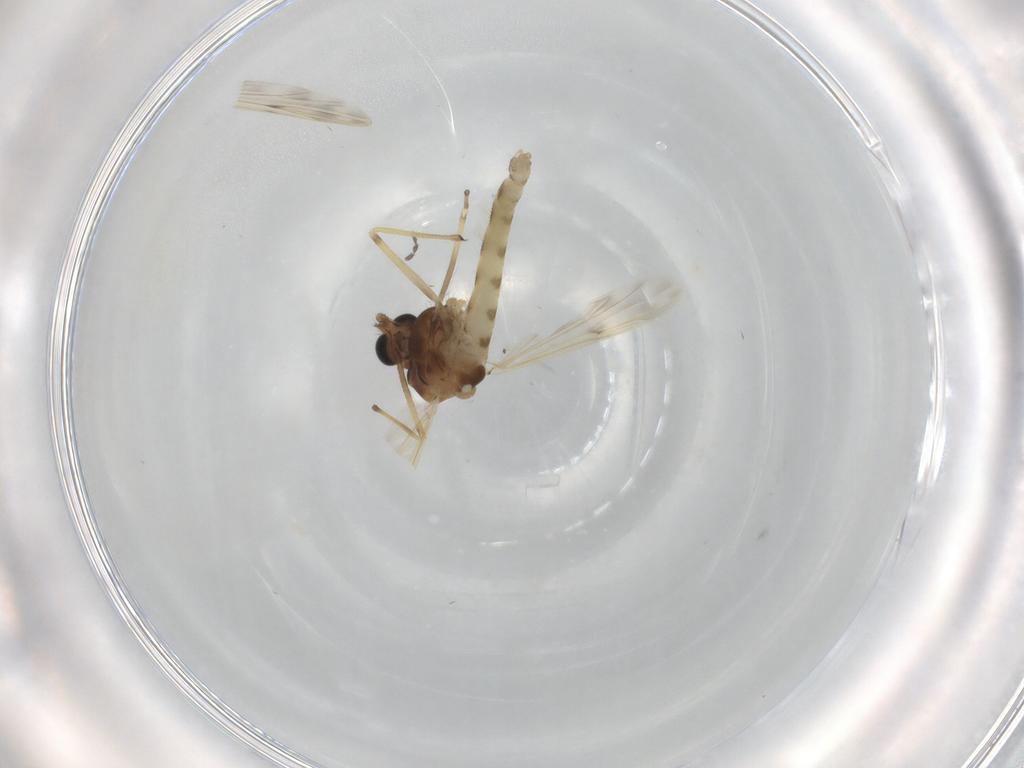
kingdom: Animalia
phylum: Arthropoda
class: Insecta
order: Diptera
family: Chironomidae
